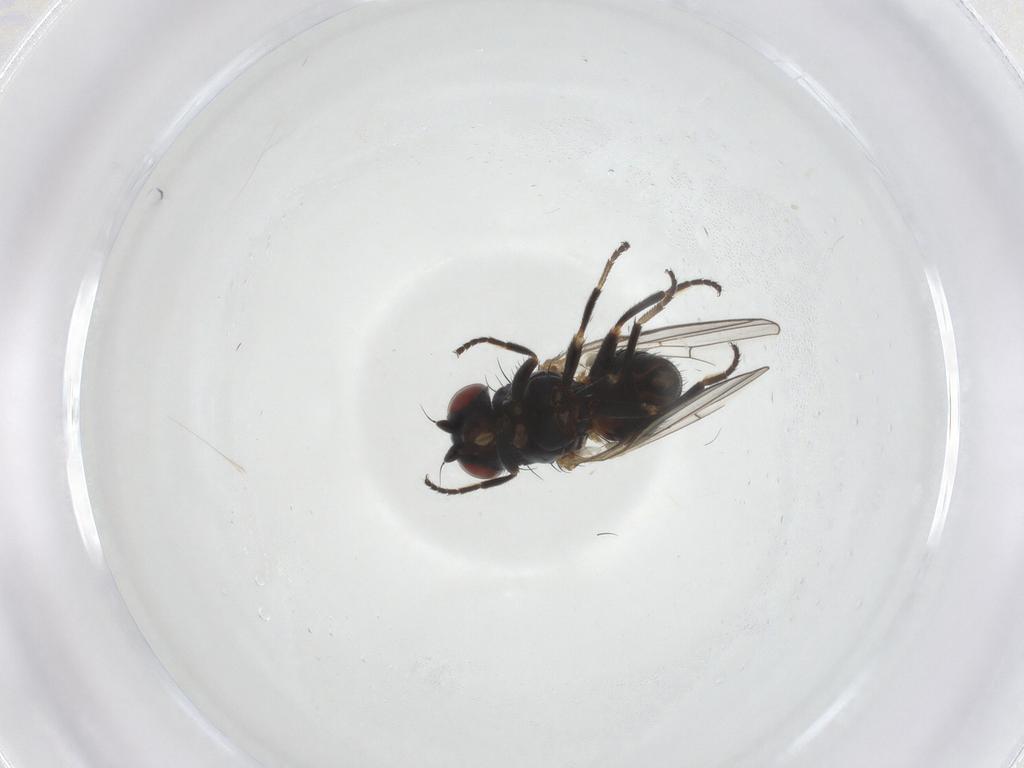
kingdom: Animalia
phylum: Arthropoda
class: Insecta
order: Diptera
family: Chamaemyiidae
